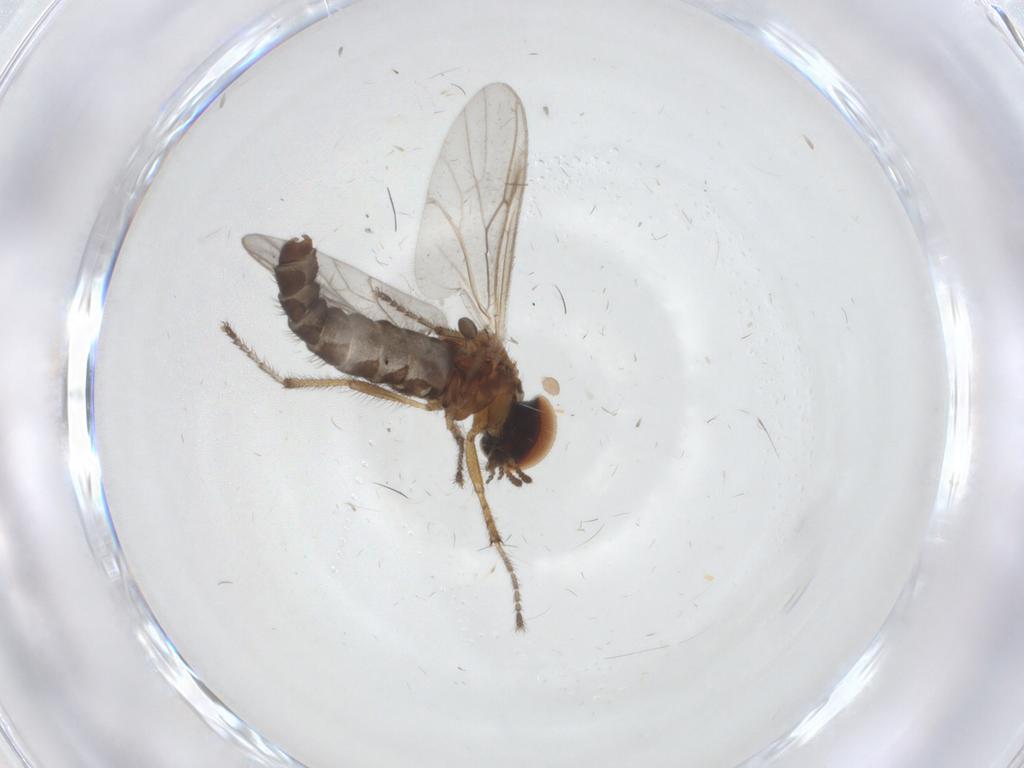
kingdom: Animalia
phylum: Arthropoda
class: Insecta
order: Diptera
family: Bibionidae
